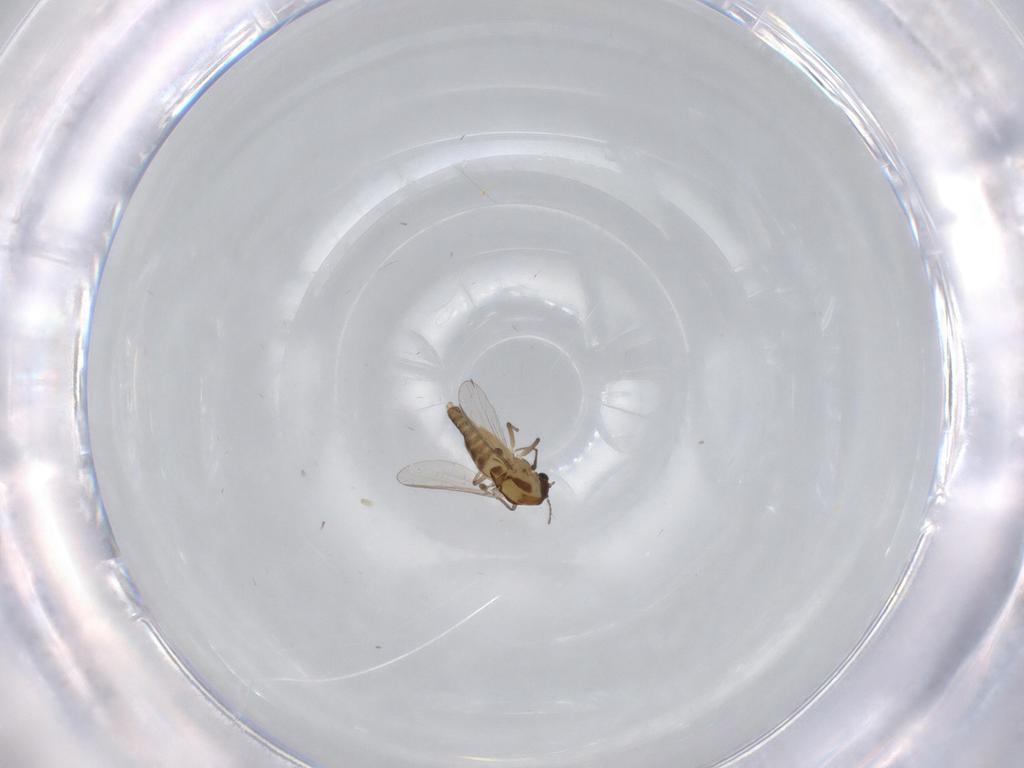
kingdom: Animalia
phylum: Arthropoda
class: Insecta
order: Diptera
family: Chironomidae
